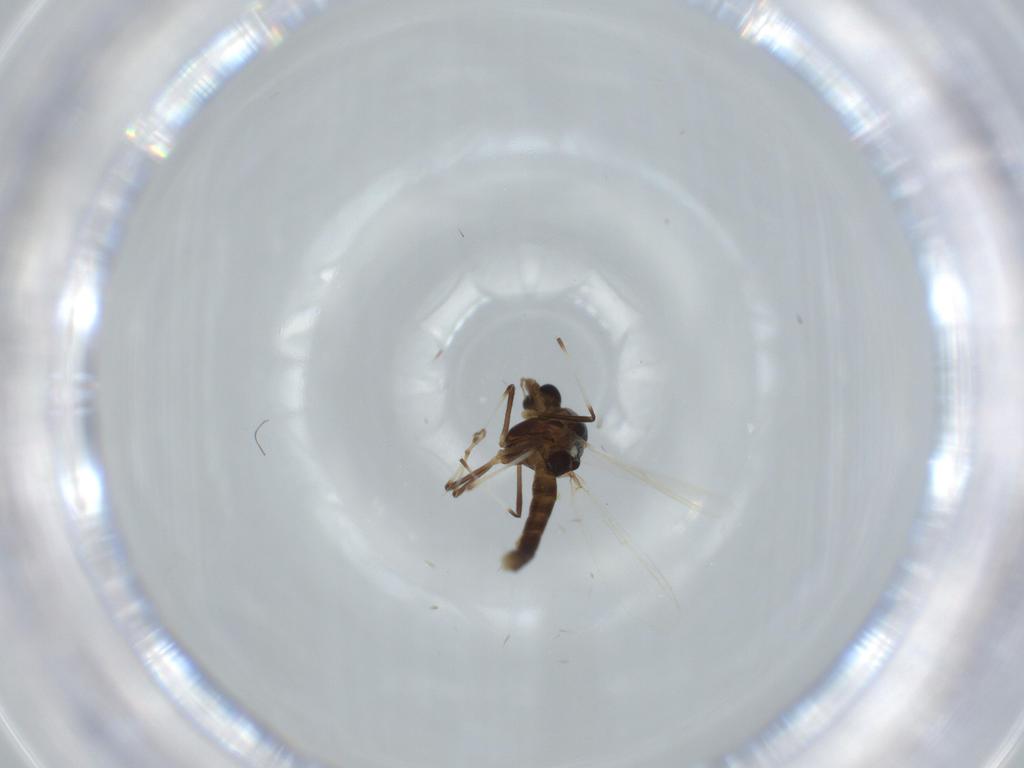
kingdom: Animalia
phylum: Arthropoda
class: Insecta
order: Diptera
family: Chironomidae
